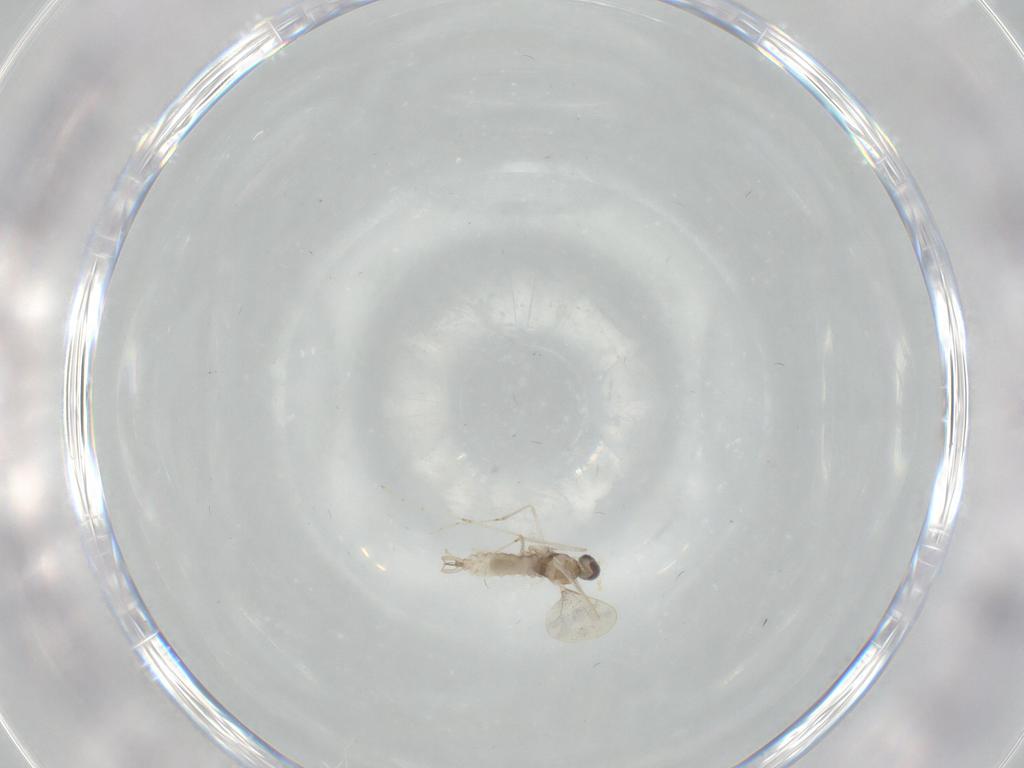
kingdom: Animalia
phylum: Arthropoda
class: Insecta
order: Diptera
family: Cecidomyiidae
